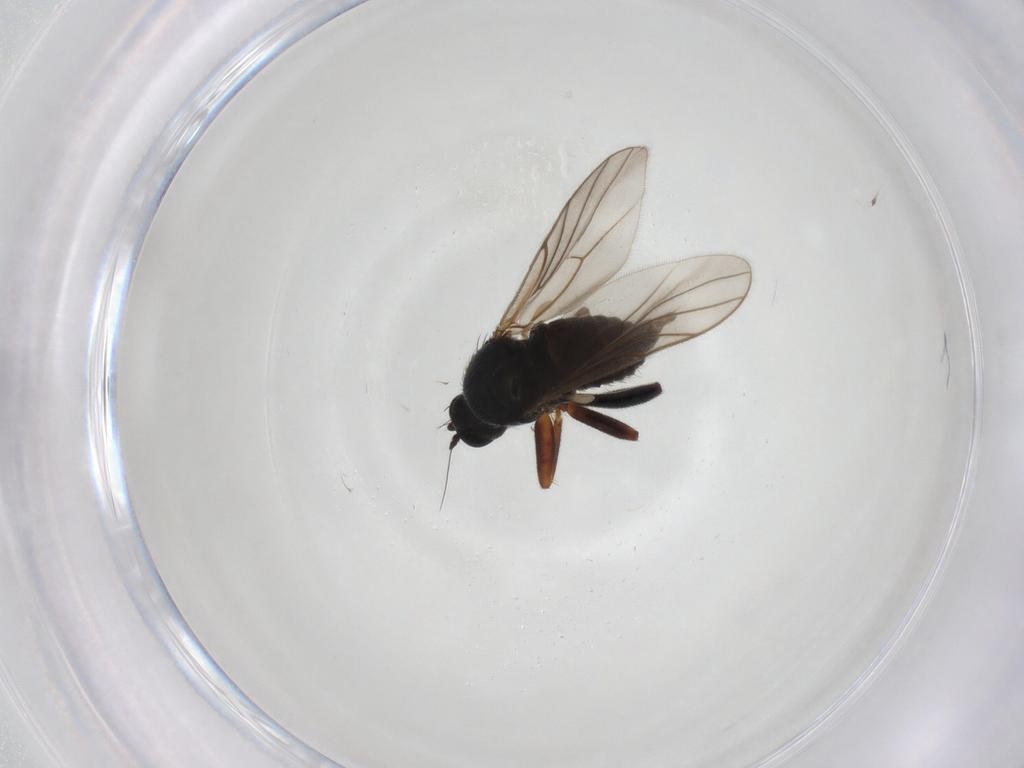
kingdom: Animalia
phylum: Arthropoda
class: Insecta
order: Diptera
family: Hybotidae
